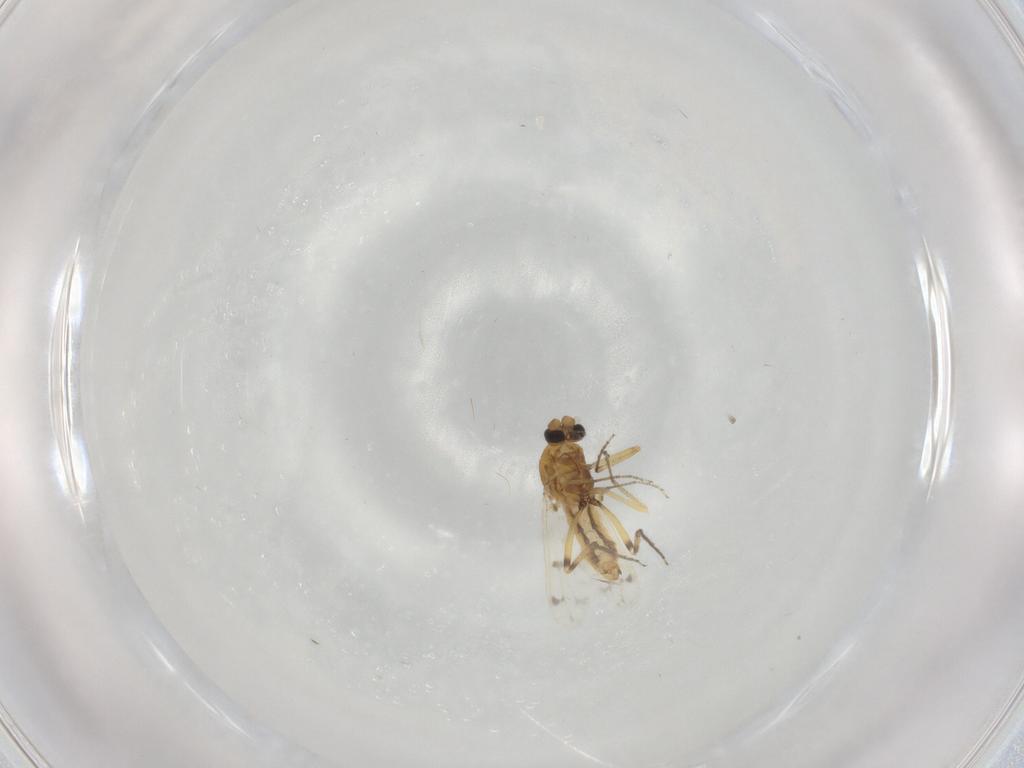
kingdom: Animalia
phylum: Arthropoda
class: Insecta
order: Diptera
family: Ceratopogonidae
